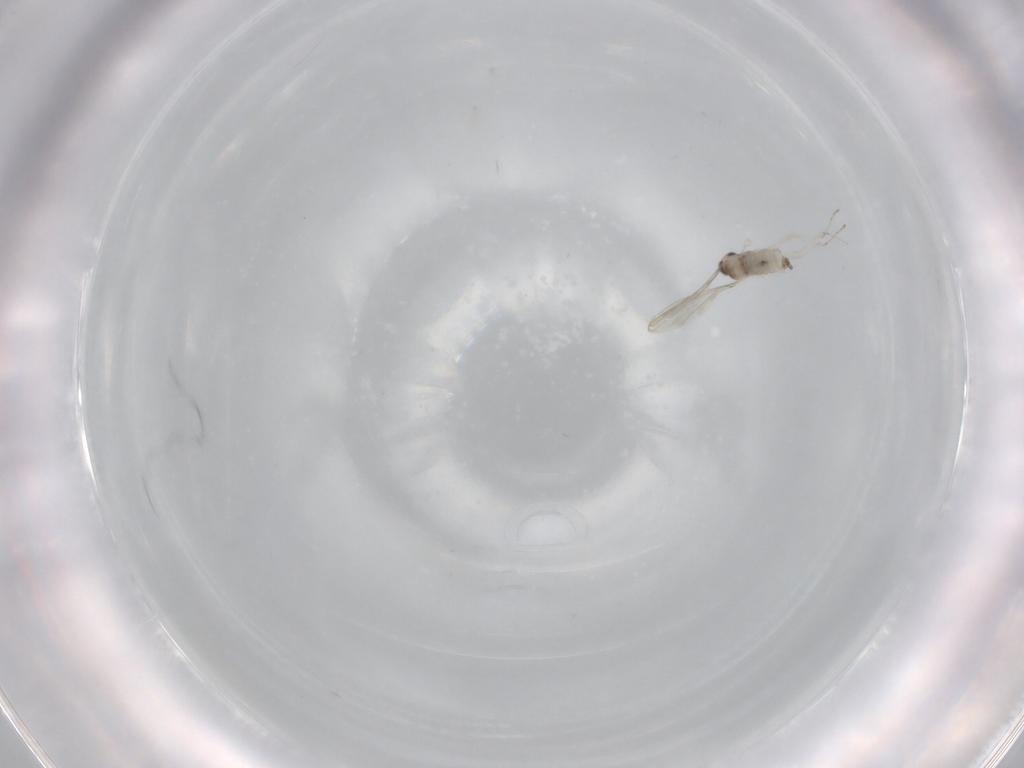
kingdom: Animalia
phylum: Arthropoda
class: Insecta
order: Diptera
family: Cecidomyiidae
